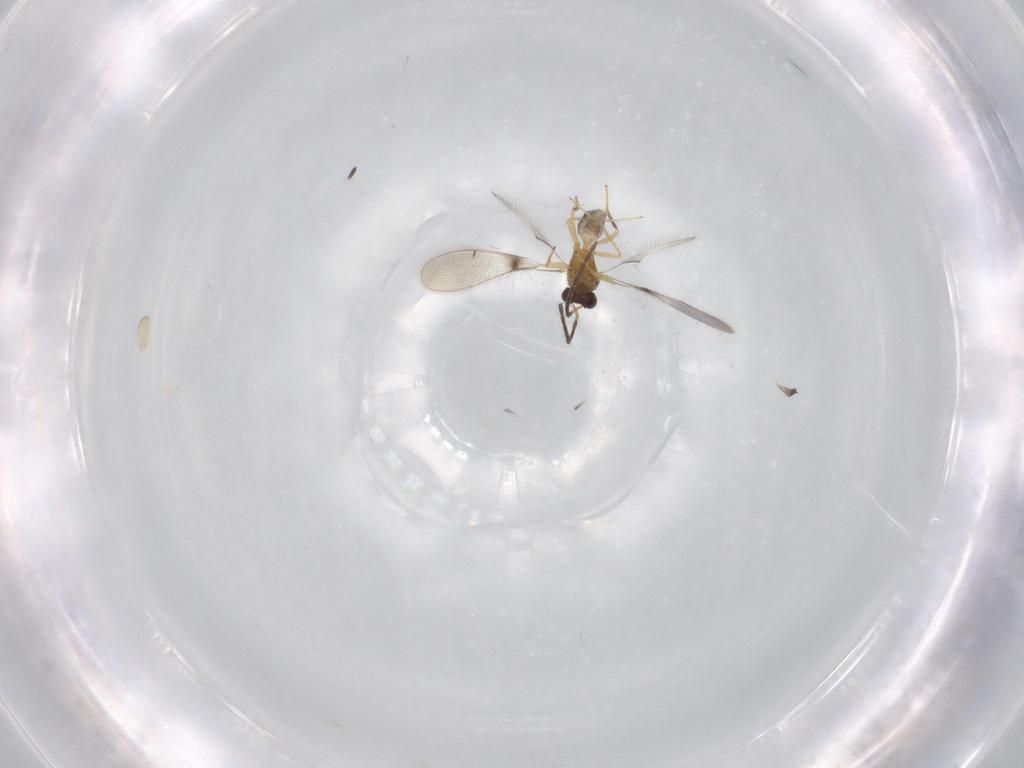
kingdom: Animalia
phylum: Arthropoda
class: Insecta
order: Hymenoptera
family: Mymaridae
